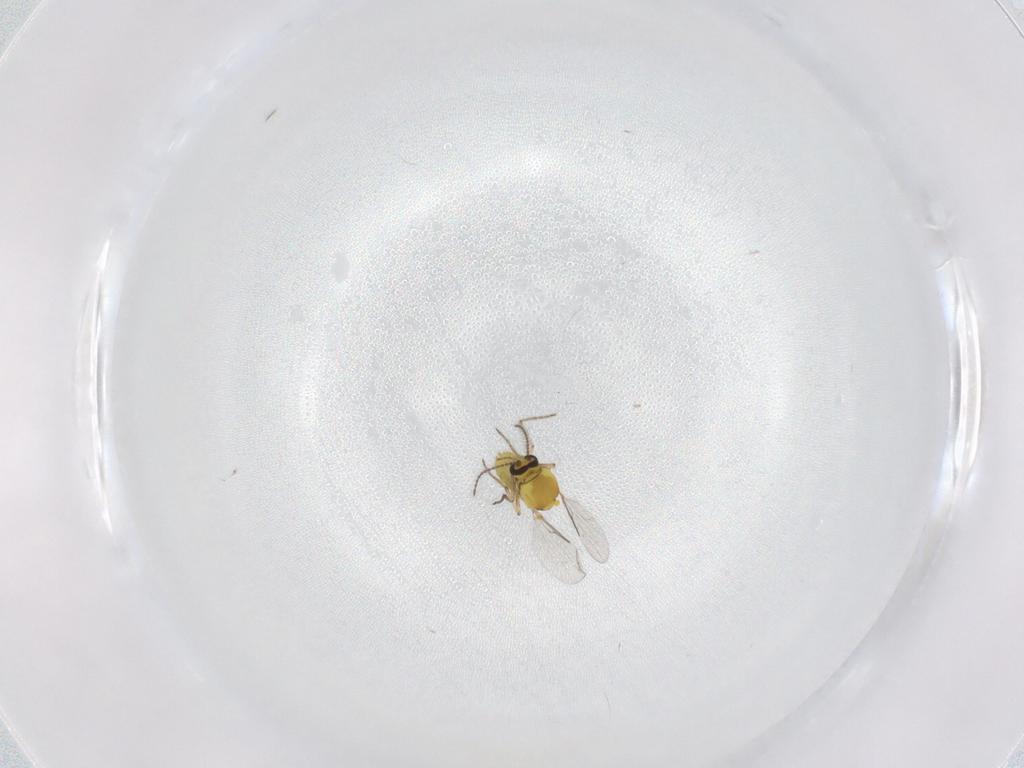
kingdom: Animalia
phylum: Arthropoda
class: Insecta
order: Diptera
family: Ceratopogonidae
